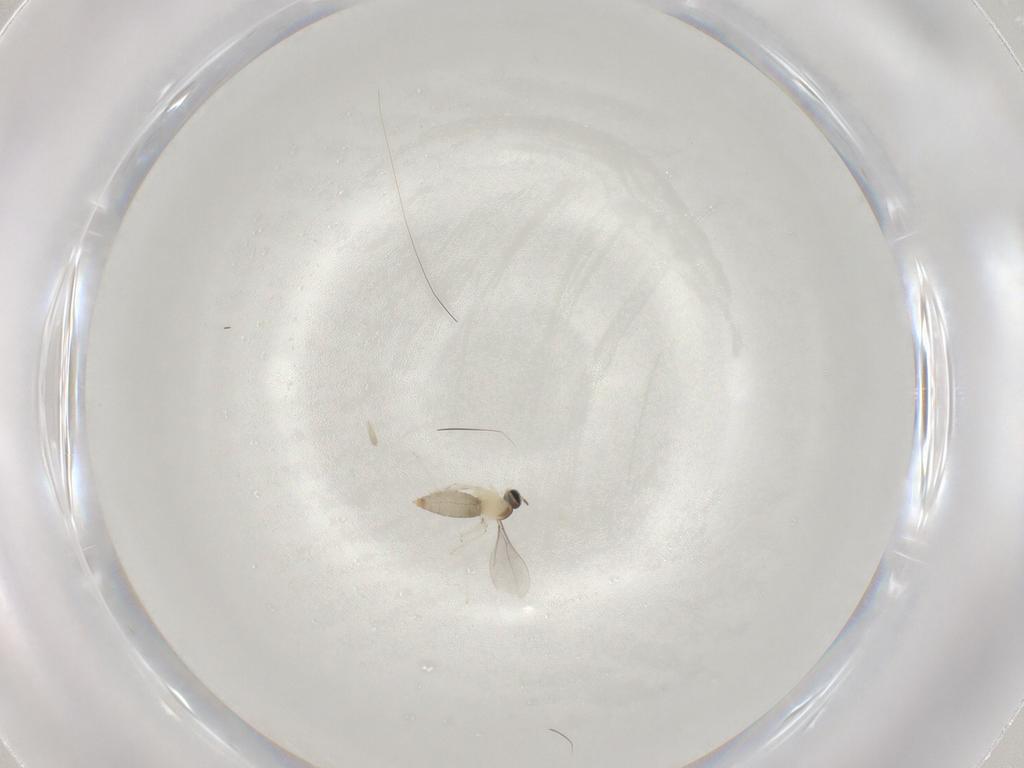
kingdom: Animalia
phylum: Arthropoda
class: Insecta
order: Diptera
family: Cecidomyiidae
